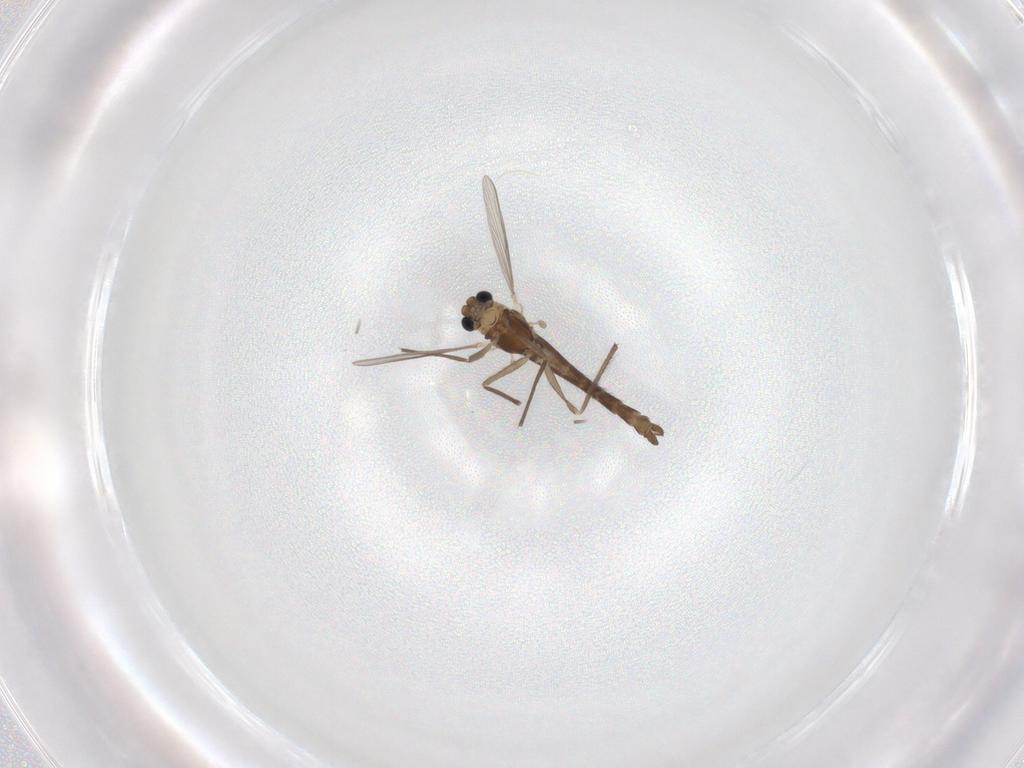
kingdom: Animalia
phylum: Arthropoda
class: Insecta
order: Diptera
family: Chironomidae
